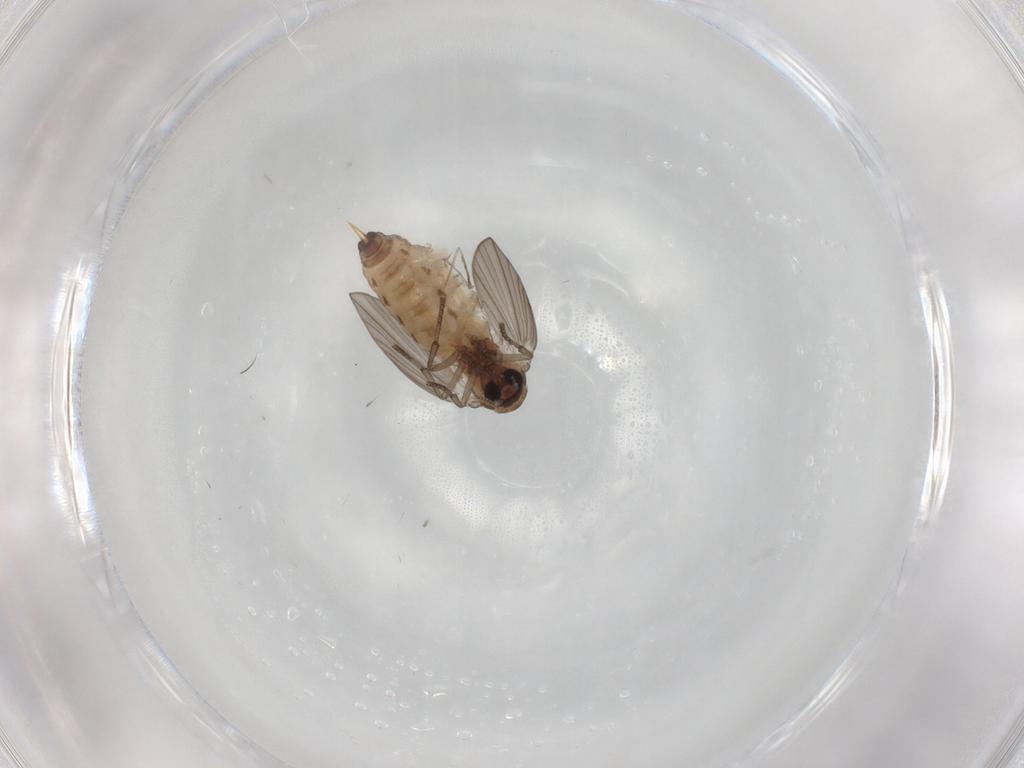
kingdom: Animalia
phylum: Arthropoda
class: Insecta
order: Diptera
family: Psychodidae
